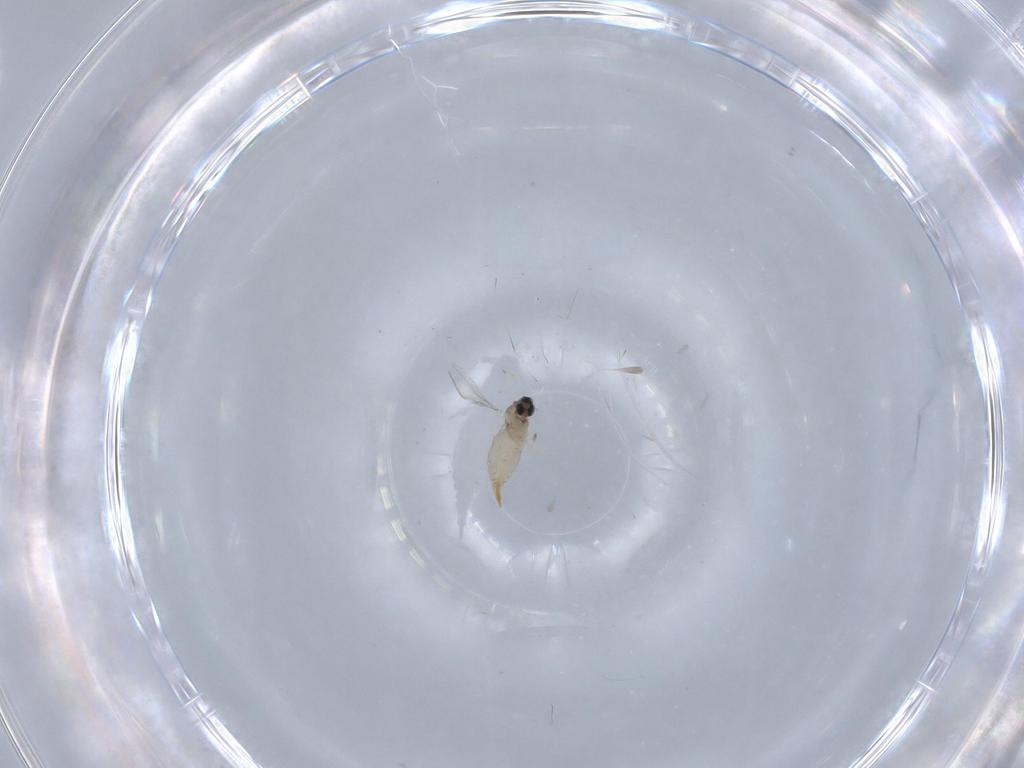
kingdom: Animalia
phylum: Arthropoda
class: Insecta
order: Diptera
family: Cecidomyiidae
